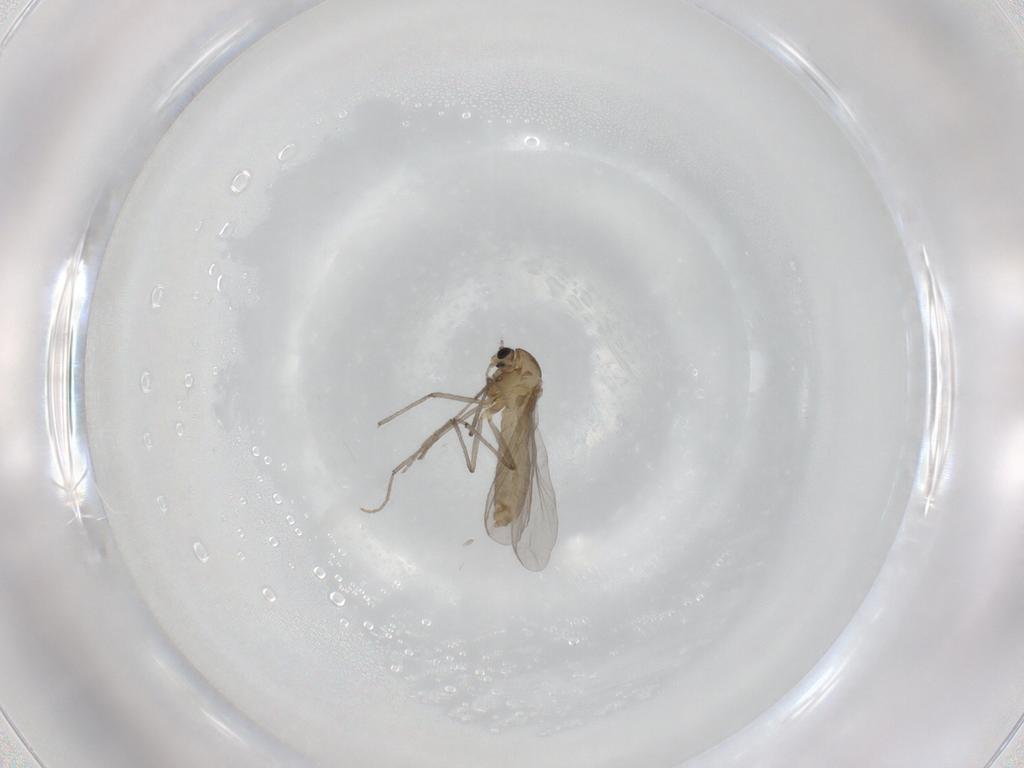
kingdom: Animalia
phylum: Arthropoda
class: Insecta
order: Diptera
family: Chironomidae
